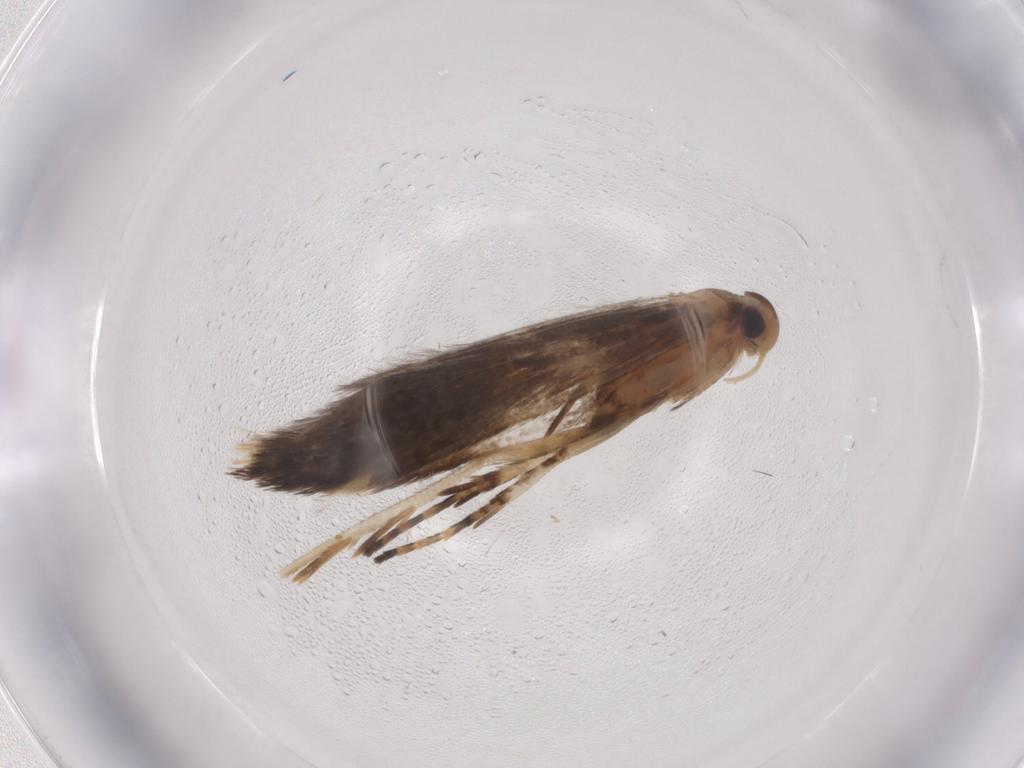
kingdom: Animalia
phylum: Arthropoda
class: Insecta
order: Lepidoptera
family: Gelechiidae
